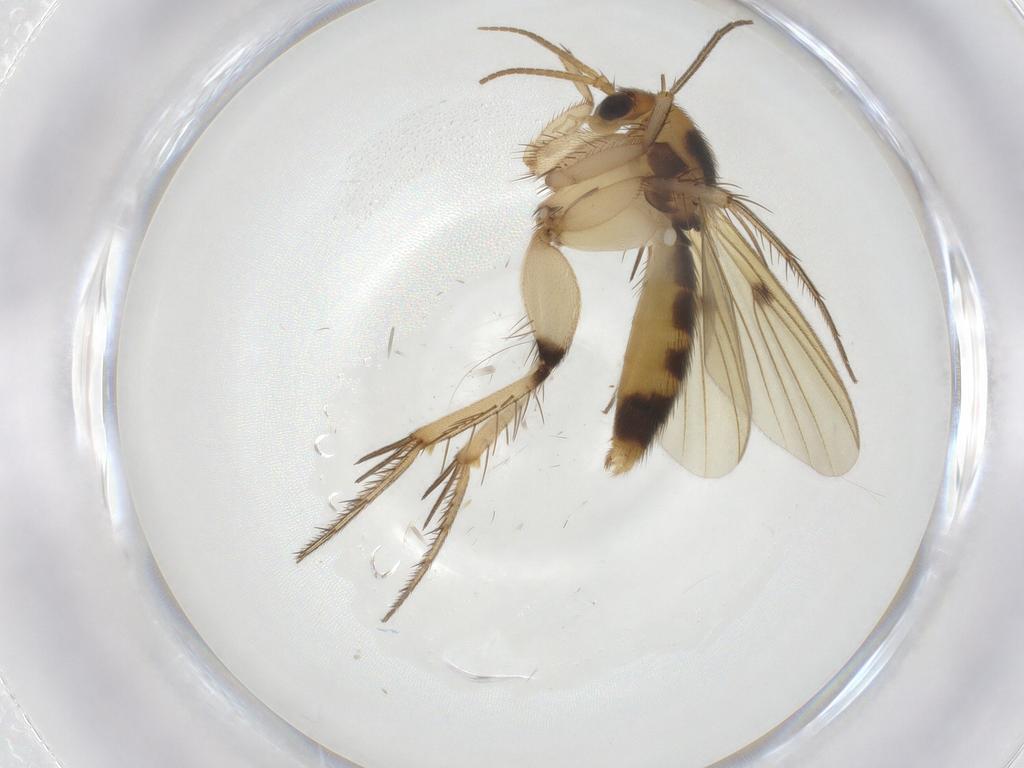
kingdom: Animalia
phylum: Arthropoda
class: Insecta
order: Diptera
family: Mycetophilidae
